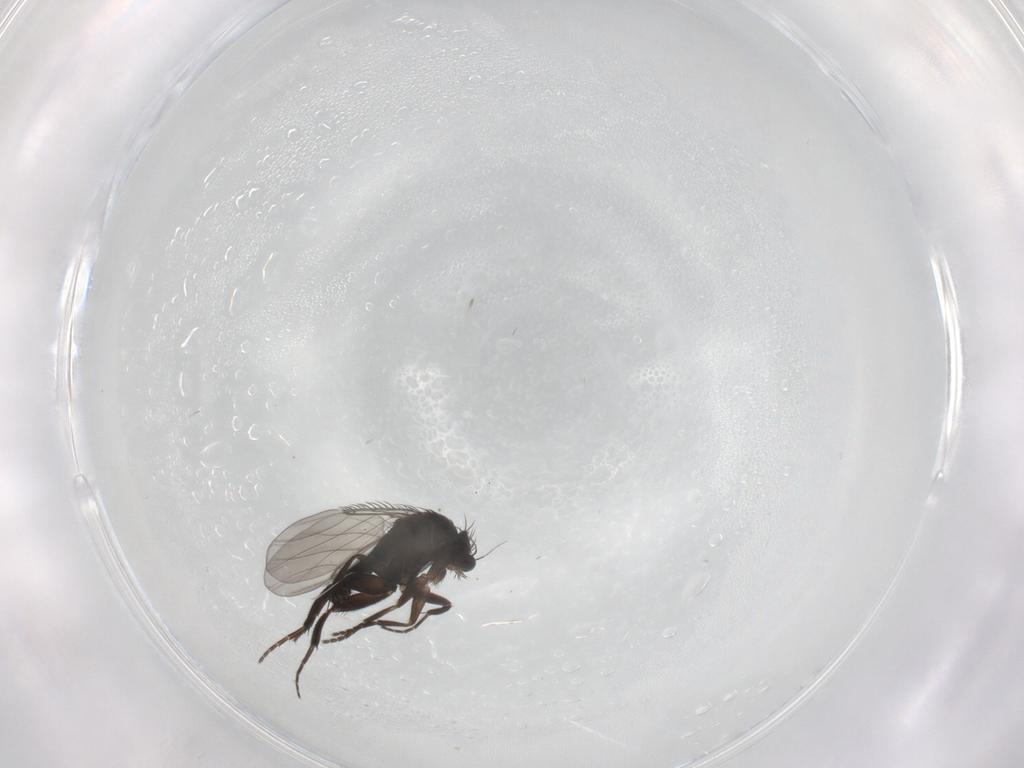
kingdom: Animalia
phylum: Arthropoda
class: Insecta
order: Diptera
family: Phoridae
